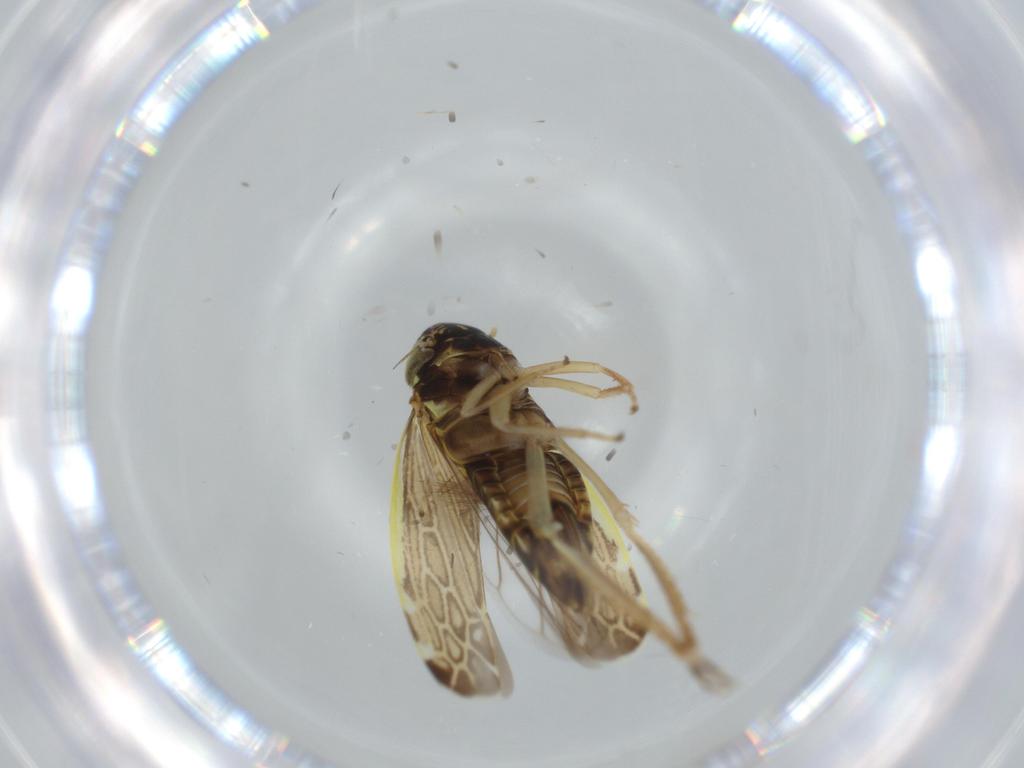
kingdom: Animalia
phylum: Arthropoda
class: Insecta
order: Hemiptera
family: Cicadellidae
